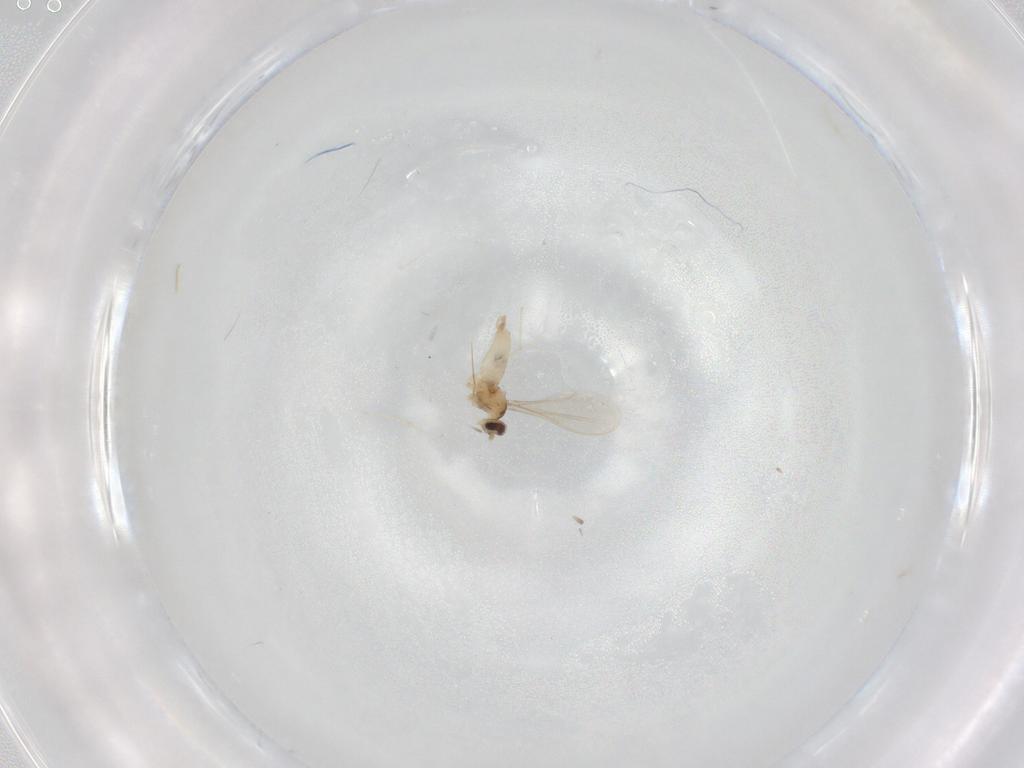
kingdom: Animalia
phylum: Arthropoda
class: Insecta
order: Diptera
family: Cecidomyiidae
